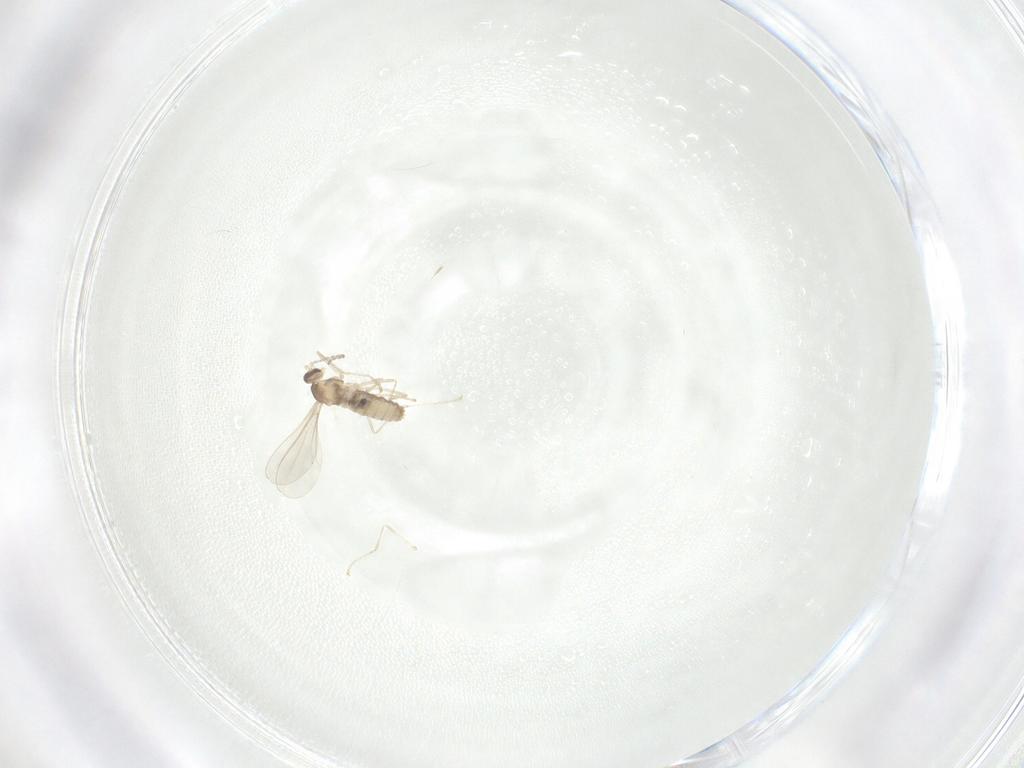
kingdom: Animalia
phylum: Arthropoda
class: Insecta
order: Diptera
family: Cecidomyiidae
